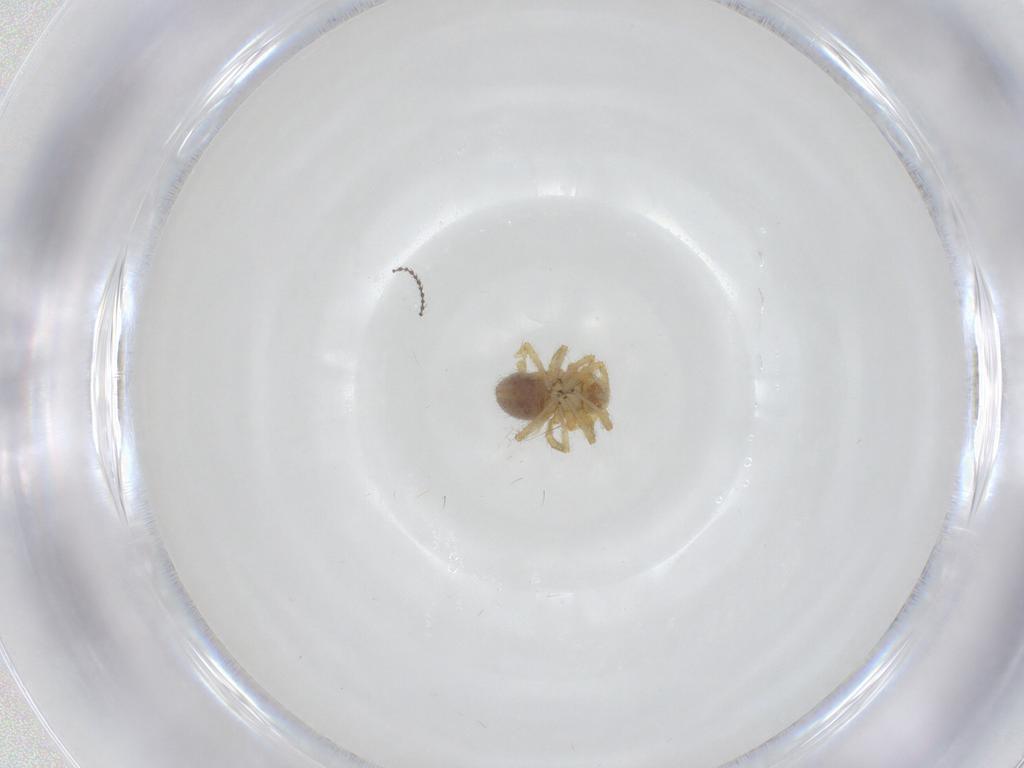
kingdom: Animalia
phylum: Arthropoda
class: Arachnida
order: Araneae
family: Linyphiidae
